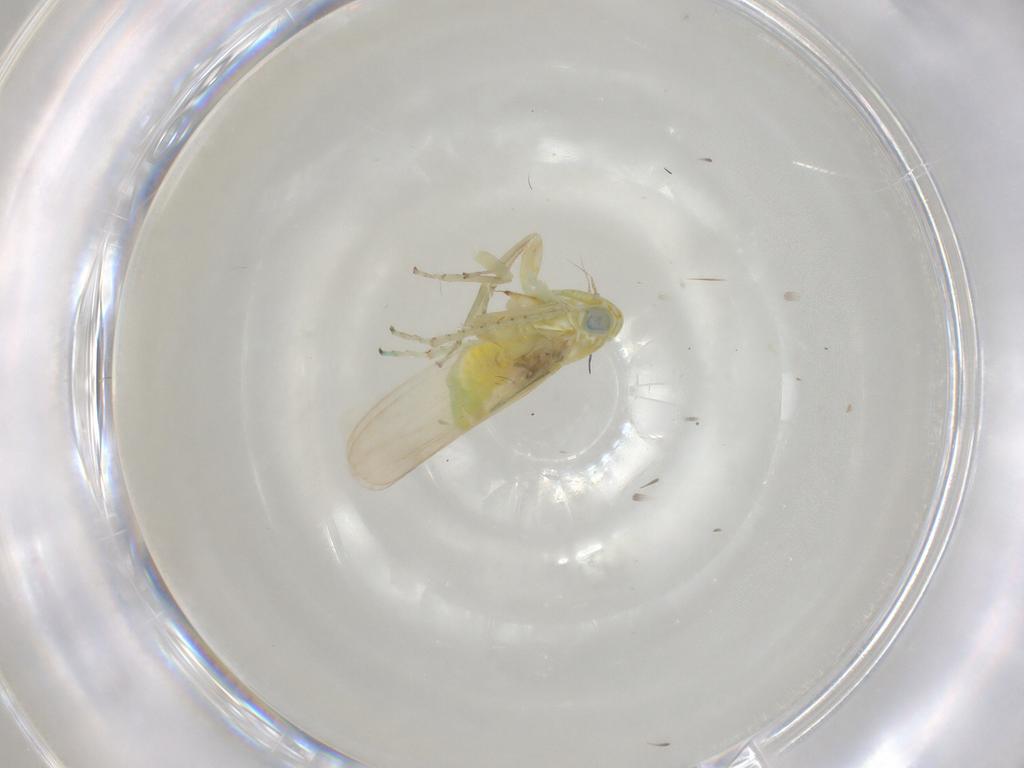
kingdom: Animalia
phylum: Arthropoda
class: Insecta
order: Hemiptera
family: Cicadellidae
